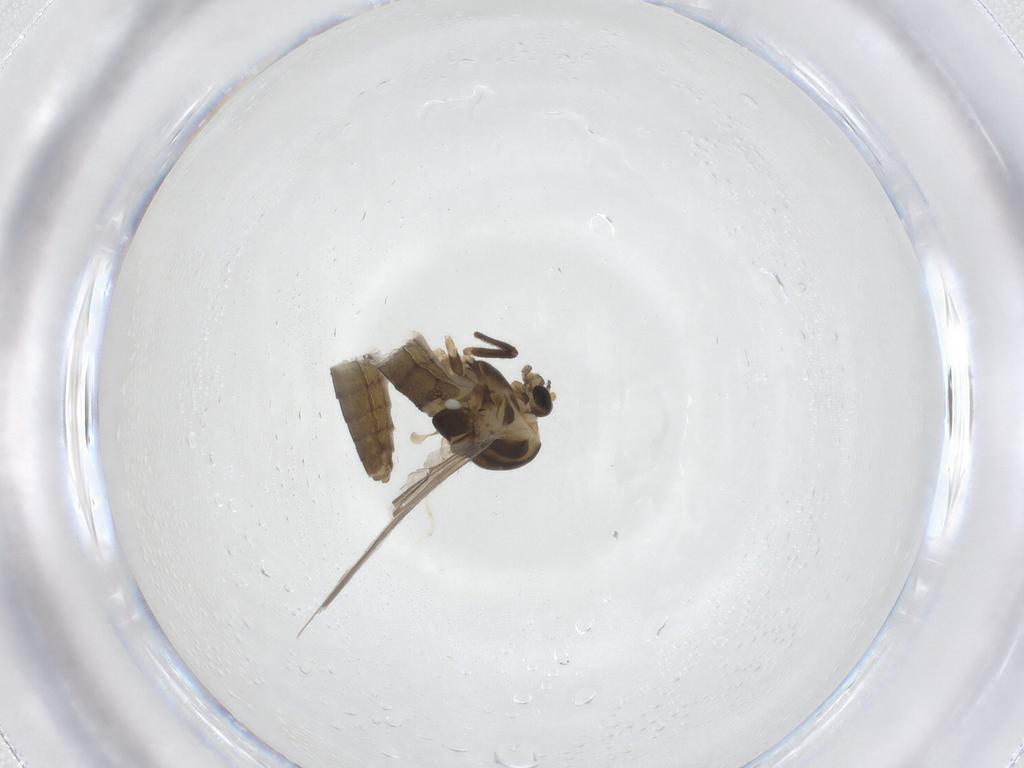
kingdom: Animalia
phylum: Arthropoda
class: Insecta
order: Diptera
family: Chironomidae
